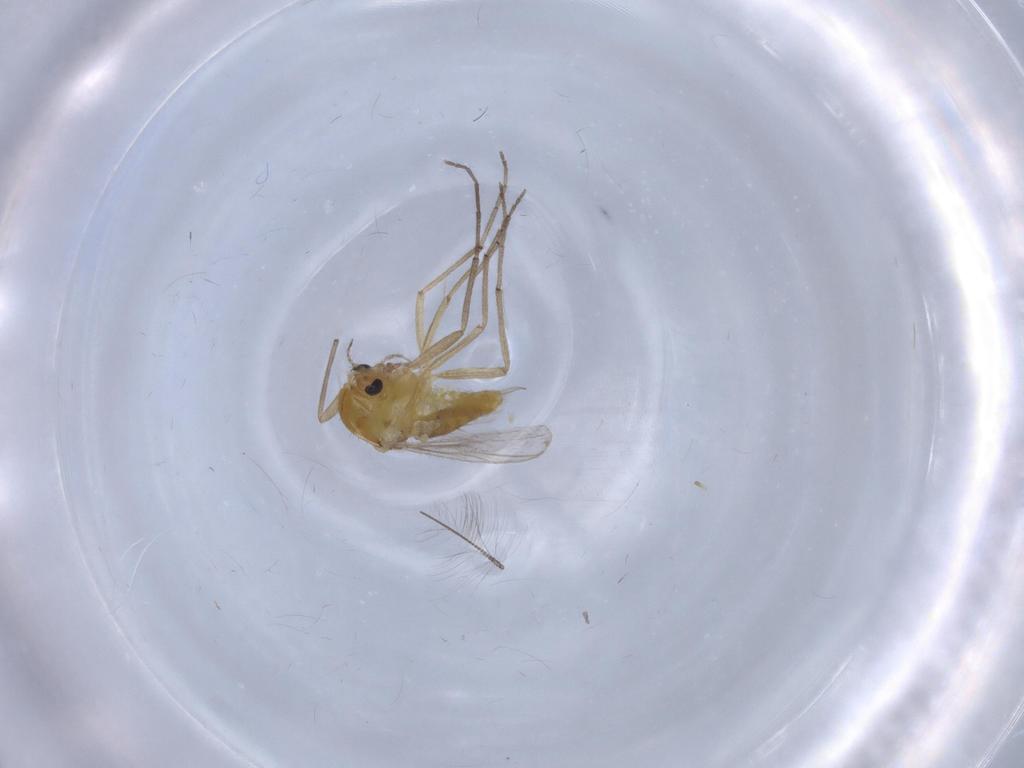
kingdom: Animalia
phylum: Arthropoda
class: Insecta
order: Diptera
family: Chironomidae
